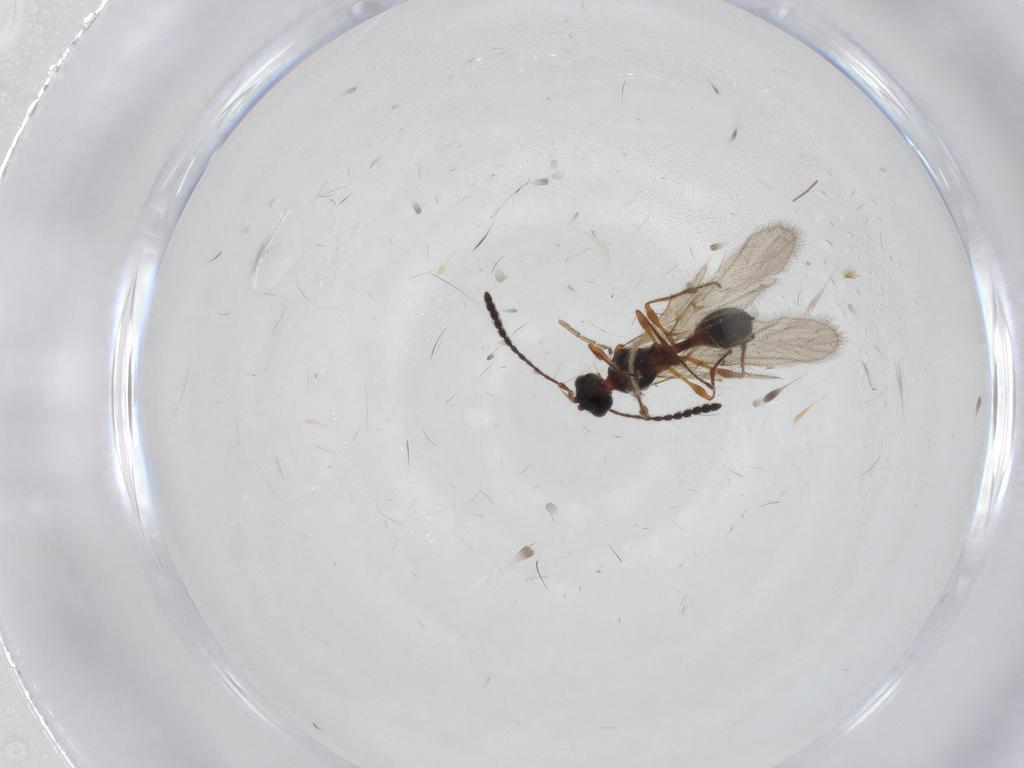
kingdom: Animalia
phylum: Arthropoda
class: Insecta
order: Hymenoptera
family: Diapriidae
